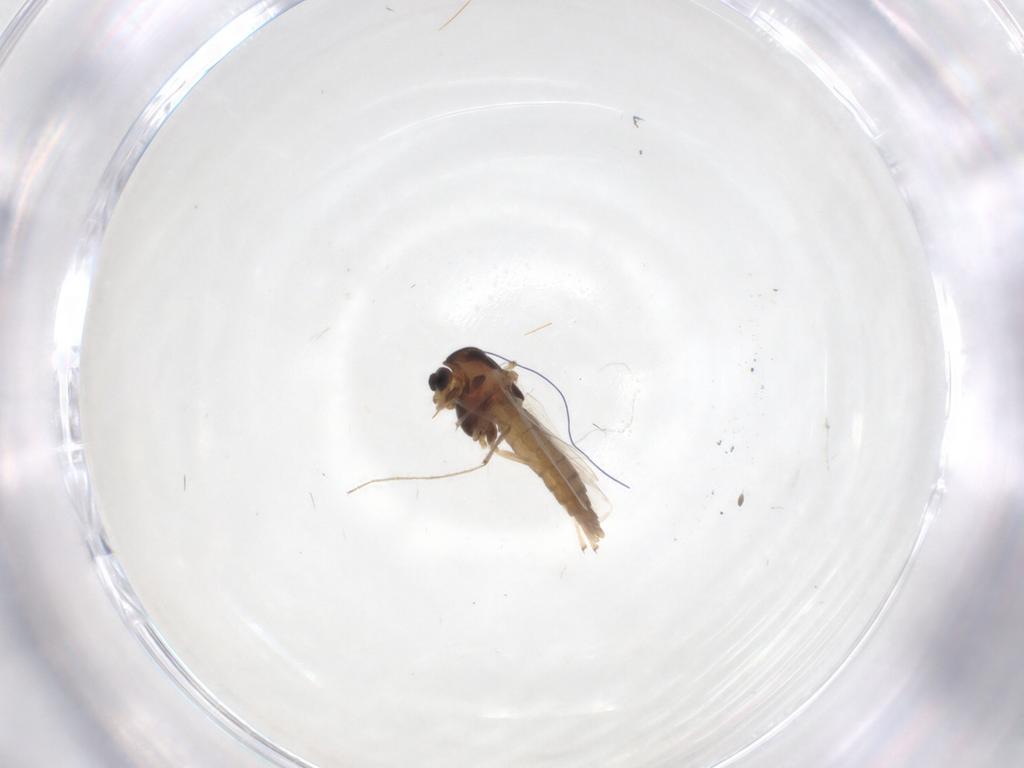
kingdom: Animalia
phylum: Arthropoda
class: Insecta
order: Diptera
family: Chironomidae
